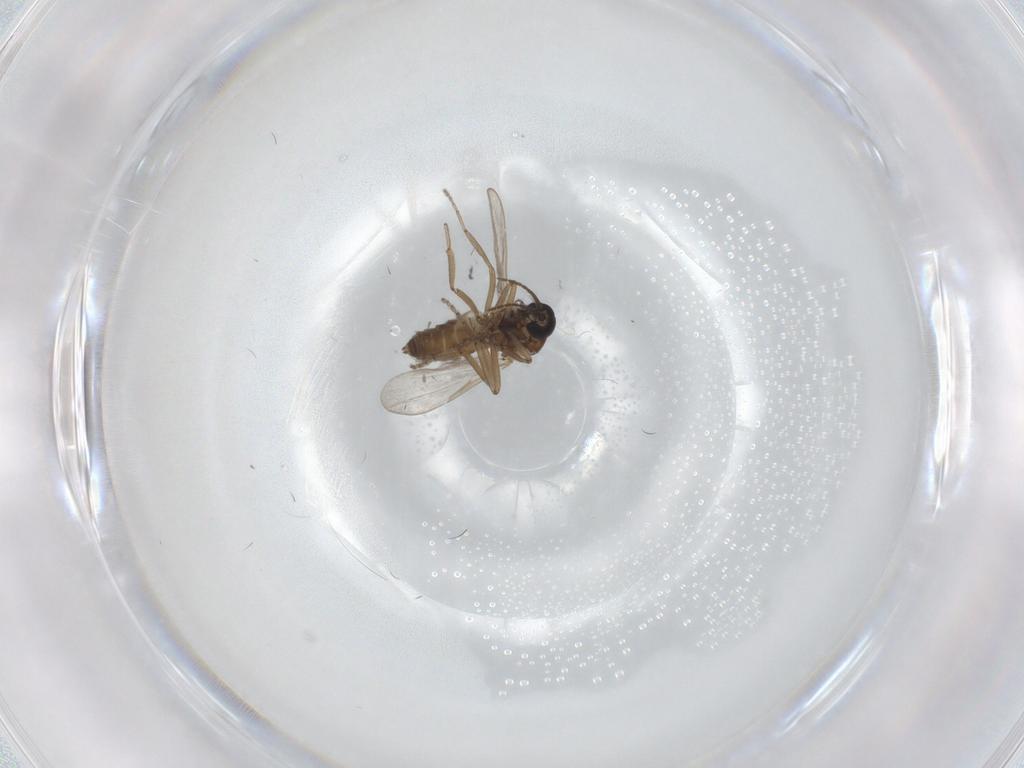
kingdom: Animalia
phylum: Arthropoda
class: Insecta
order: Diptera
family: Ceratopogonidae
